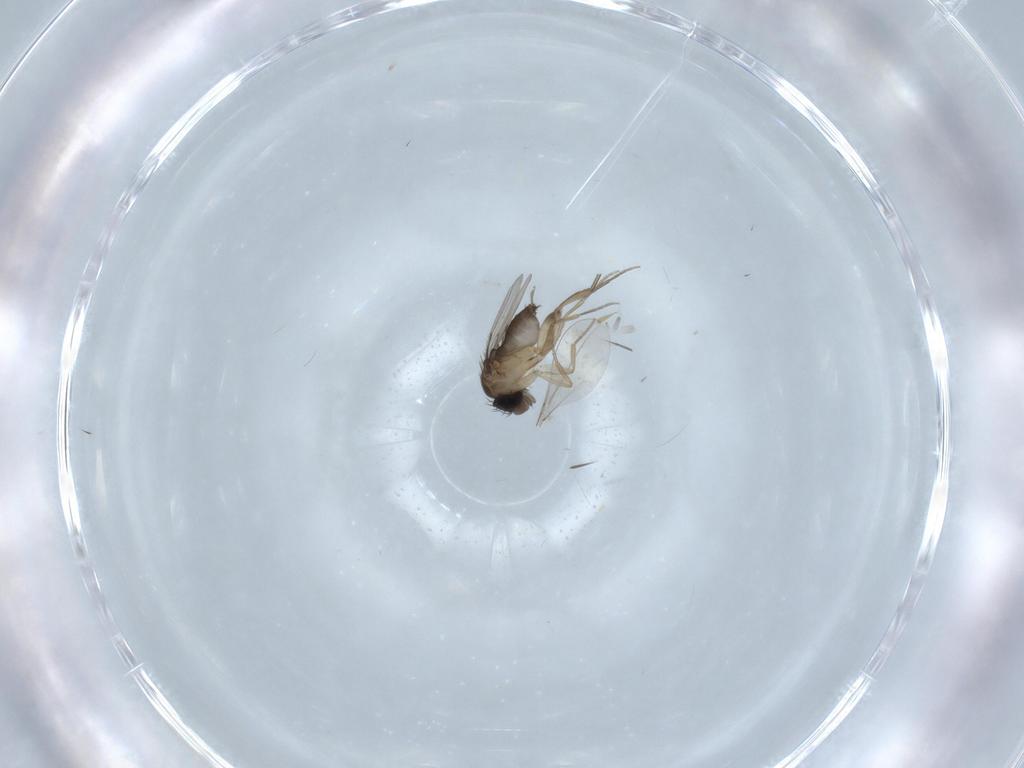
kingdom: Animalia
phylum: Arthropoda
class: Insecta
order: Diptera
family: Phoridae
